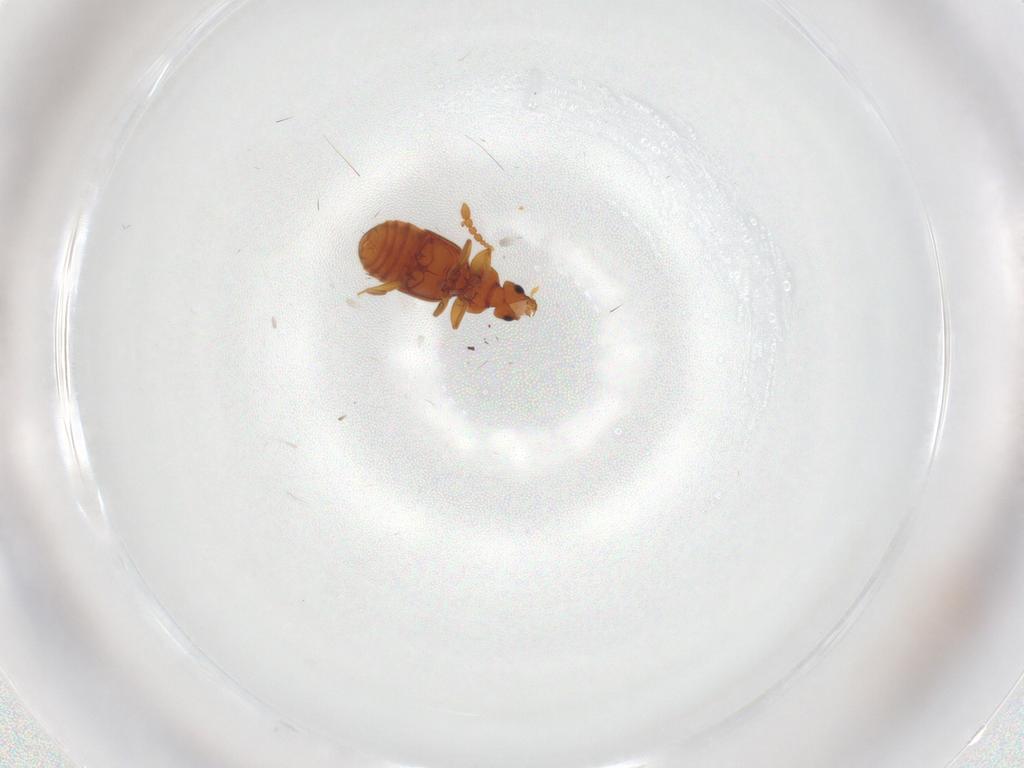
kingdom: Animalia
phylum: Arthropoda
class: Insecta
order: Coleoptera
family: Staphylinidae
